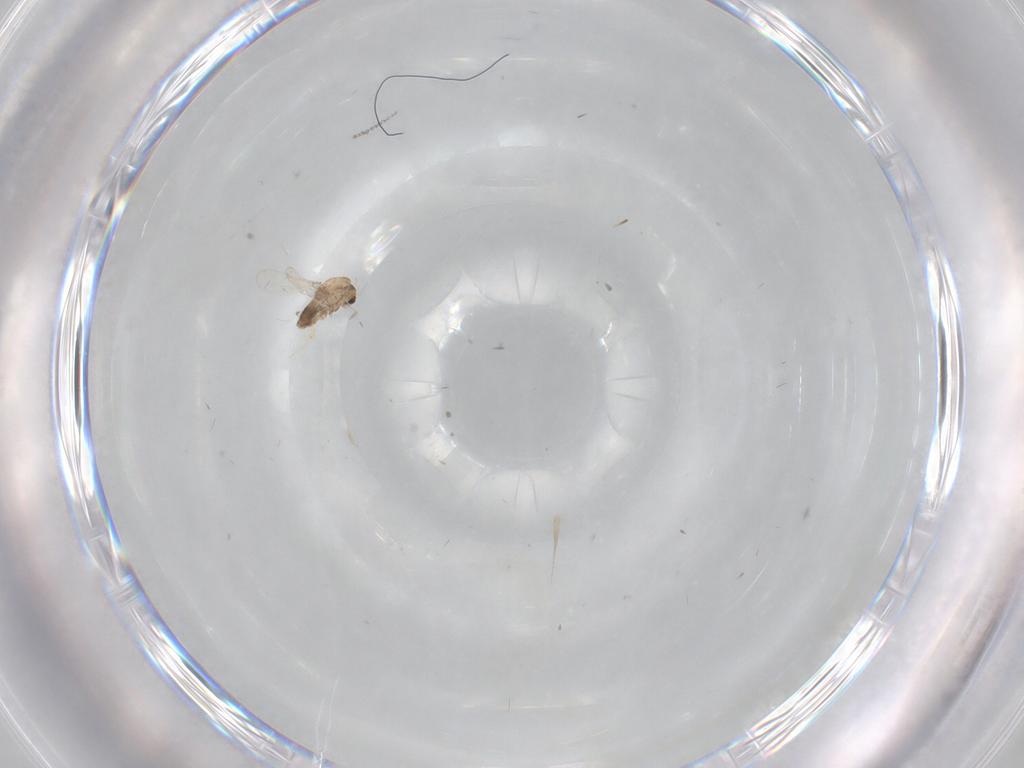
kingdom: Animalia
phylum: Arthropoda
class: Insecta
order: Diptera
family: Chironomidae
